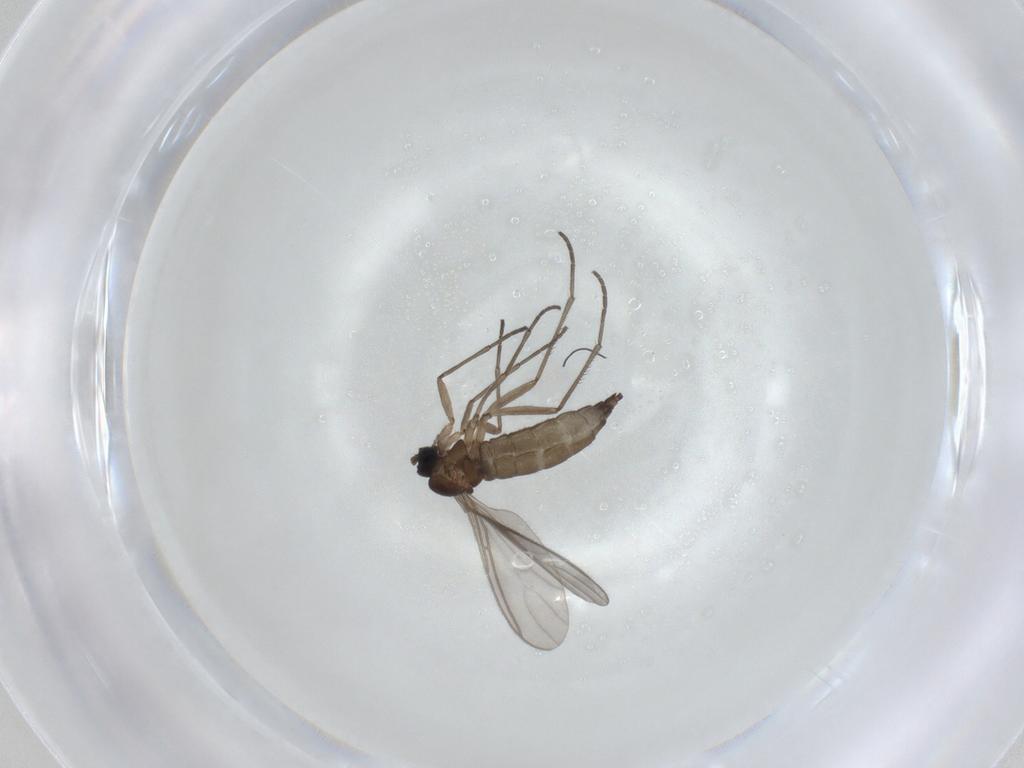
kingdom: Animalia
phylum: Arthropoda
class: Insecta
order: Diptera
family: Sciaridae
